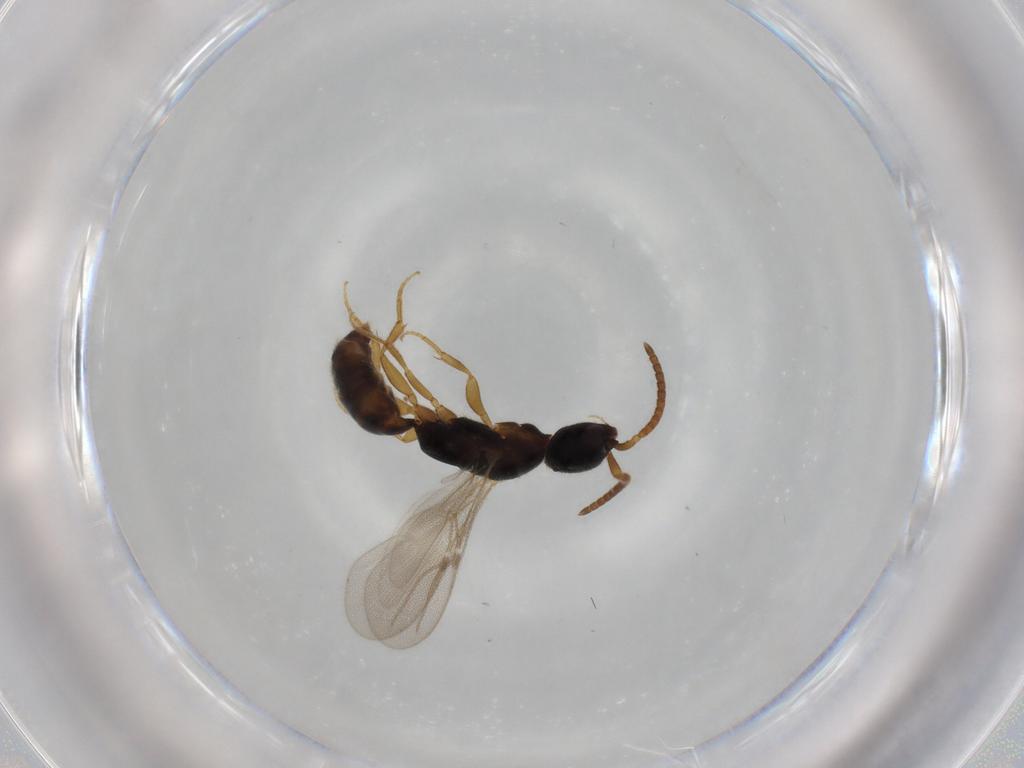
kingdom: Animalia
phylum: Arthropoda
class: Insecta
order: Hymenoptera
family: Bethylidae
